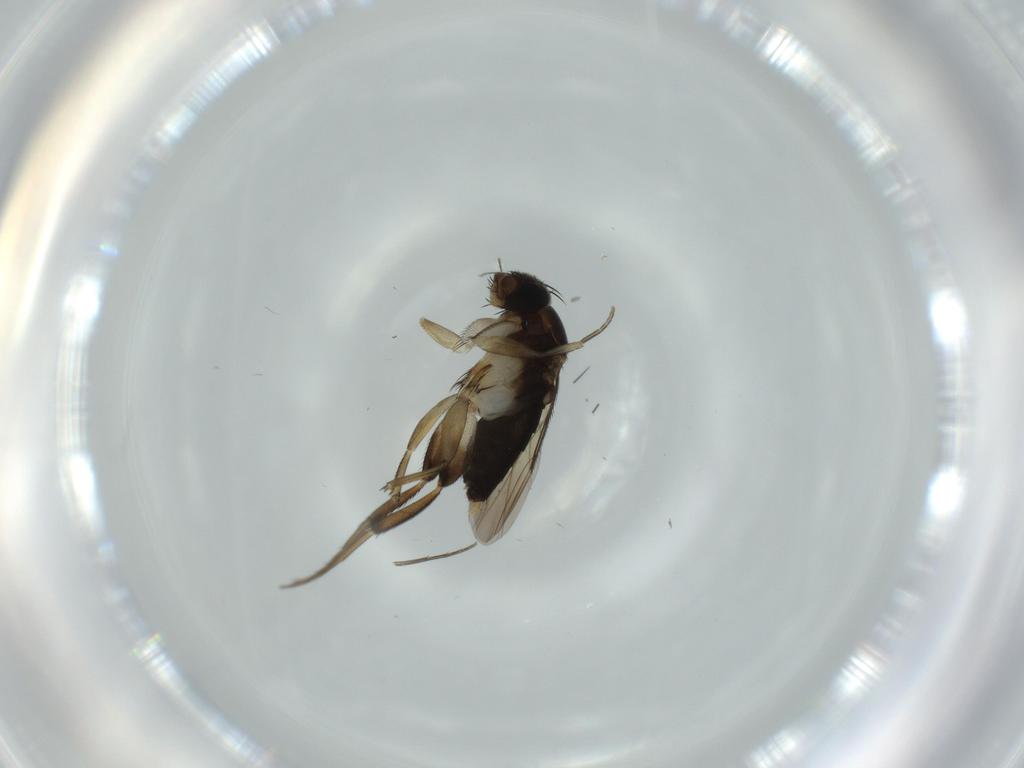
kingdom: Animalia
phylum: Arthropoda
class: Insecta
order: Diptera
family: Phoridae
